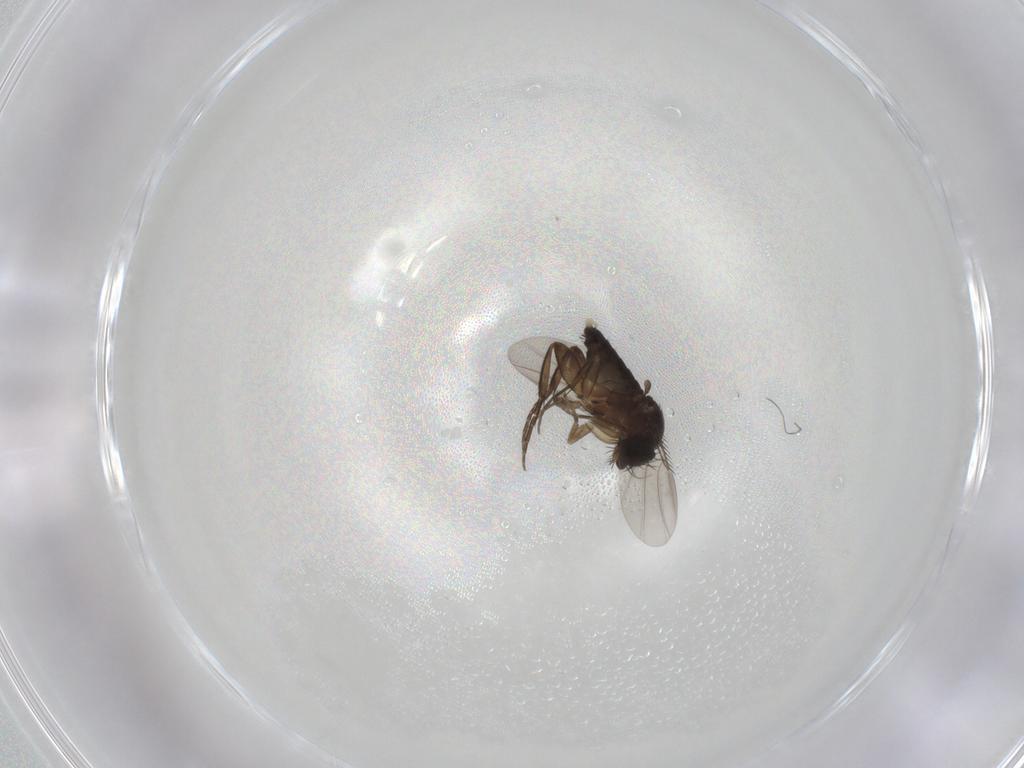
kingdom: Animalia
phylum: Arthropoda
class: Insecta
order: Diptera
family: Phoridae
